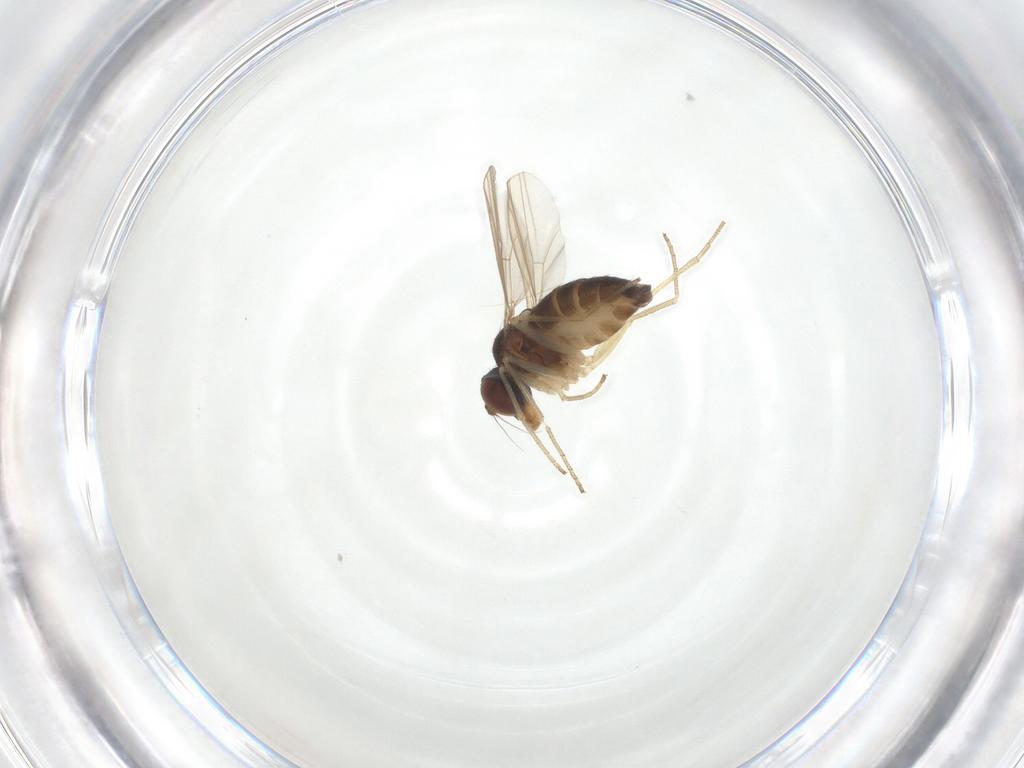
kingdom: Animalia
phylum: Arthropoda
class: Insecta
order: Diptera
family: Dolichopodidae
